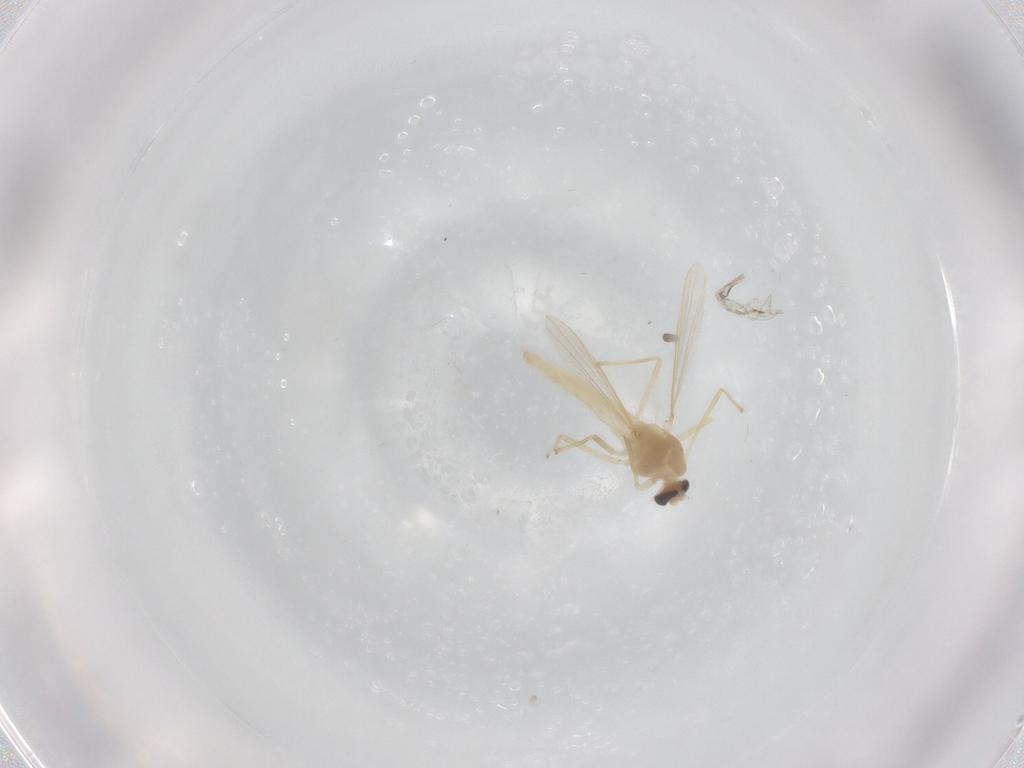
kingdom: Animalia
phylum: Arthropoda
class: Insecta
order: Diptera
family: Chironomidae
